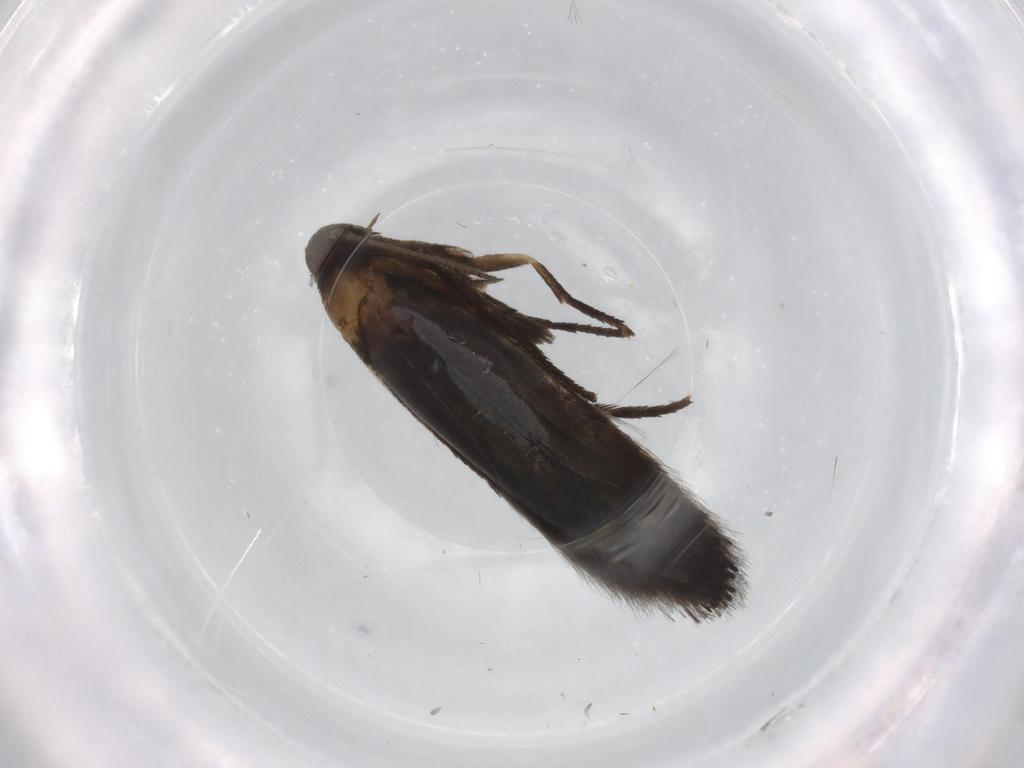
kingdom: Animalia
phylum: Arthropoda
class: Insecta
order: Lepidoptera
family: Heliozelidae
